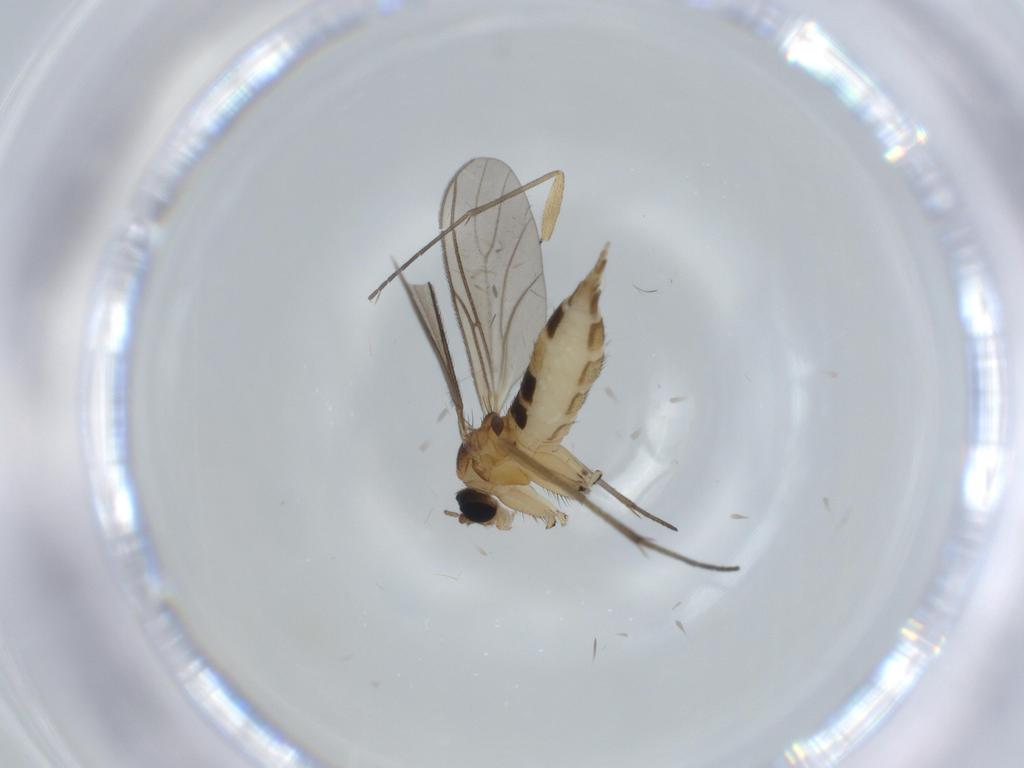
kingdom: Animalia
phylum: Arthropoda
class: Insecta
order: Diptera
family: Sciaridae
